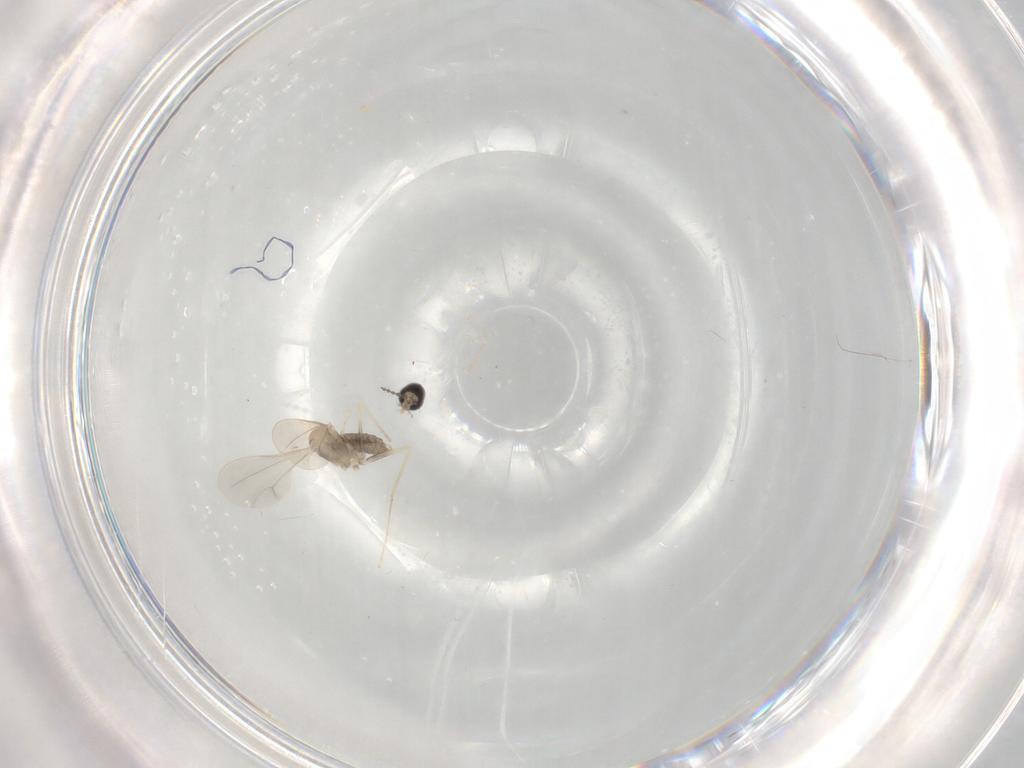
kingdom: Animalia
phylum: Arthropoda
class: Insecta
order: Diptera
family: Cecidomyiidae
